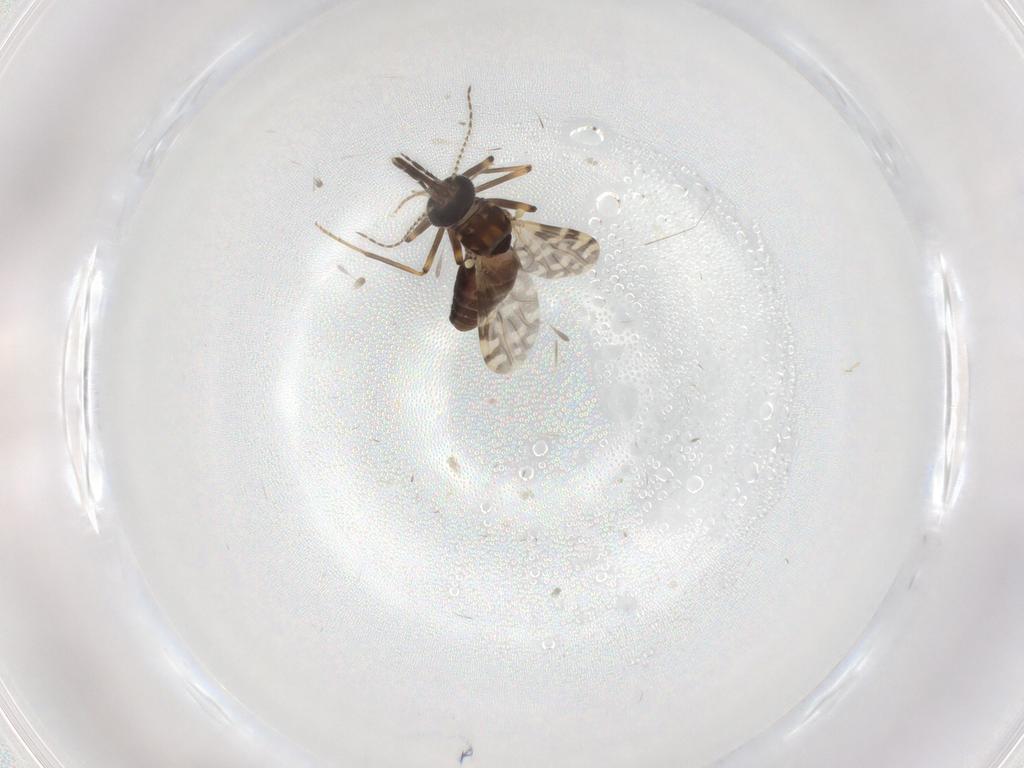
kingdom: Animalia
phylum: Arthropoda
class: Insecta
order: Diptera
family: Ceratopogonidae
